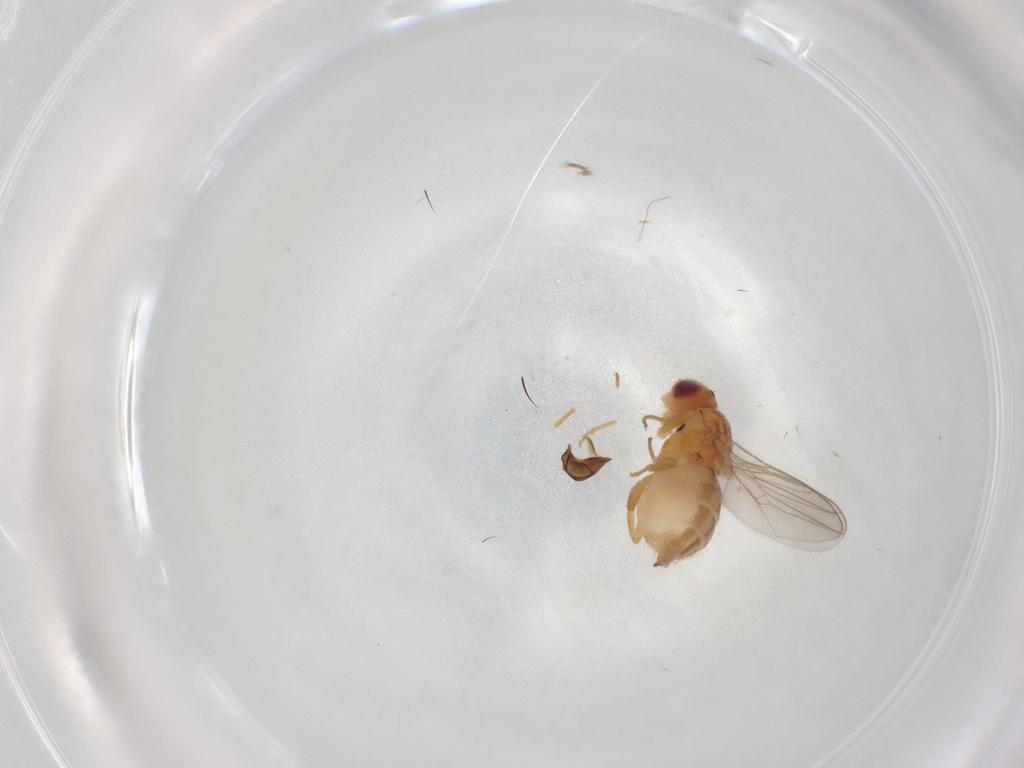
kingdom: Animalia
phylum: Arthropoda
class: Insecta
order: Diptera
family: Chloropidae
